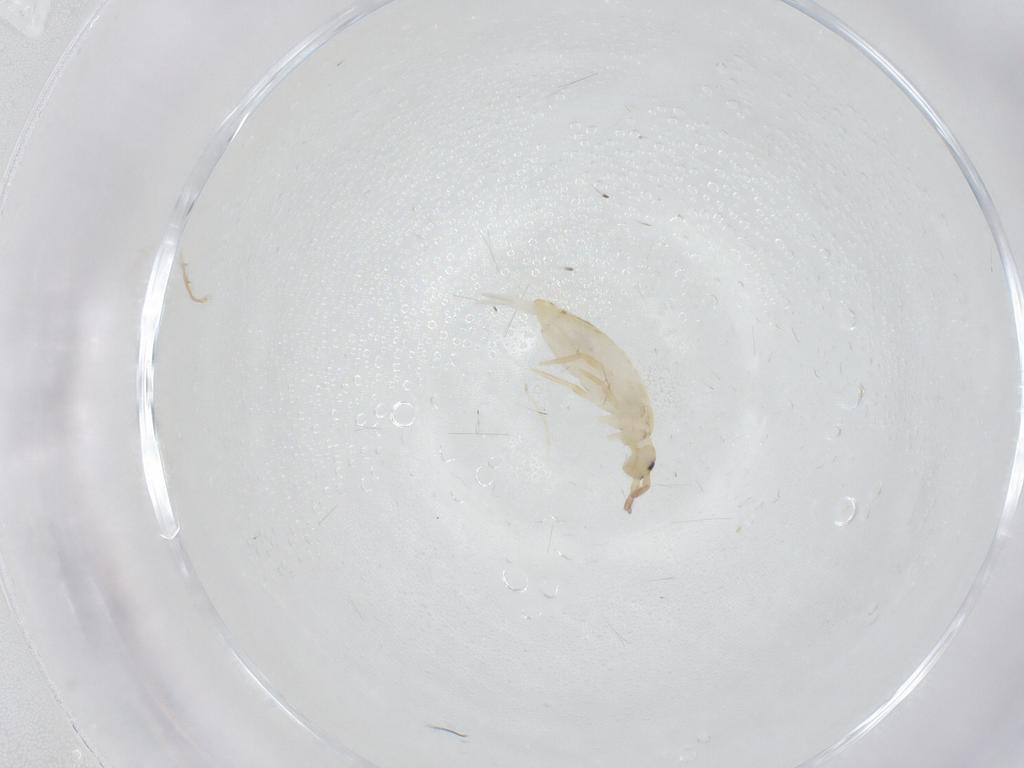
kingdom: Animalia
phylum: Arthropoda
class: Collembola
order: Entomobryomorpha
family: Entomobryidae
